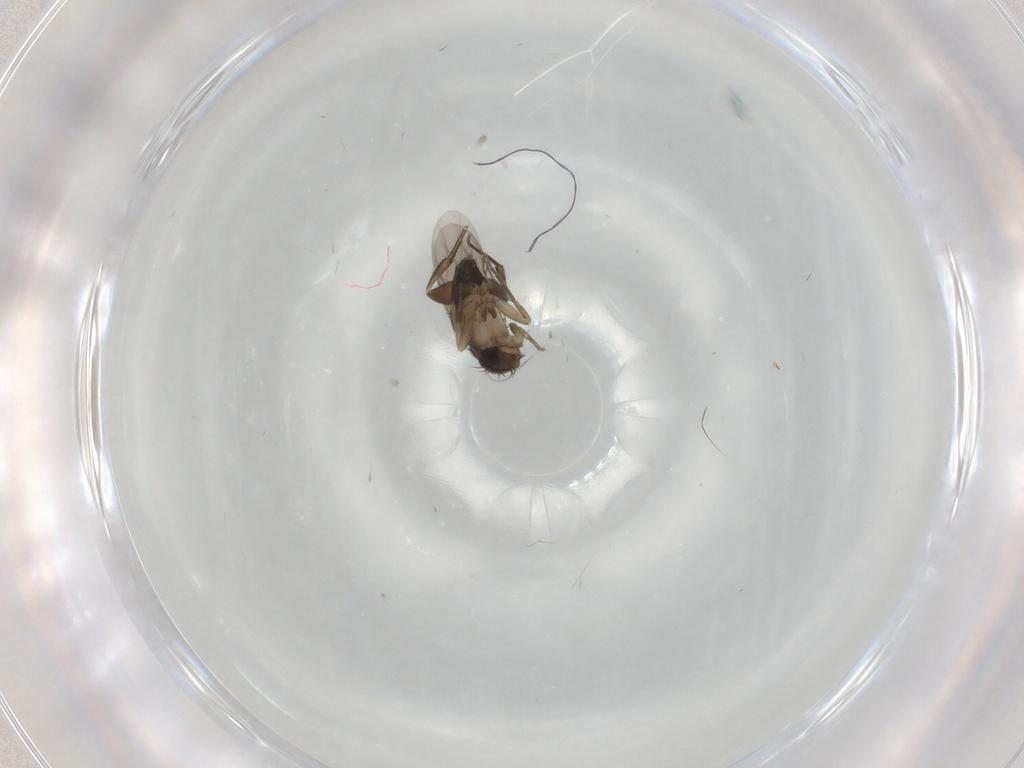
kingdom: Animalia
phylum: Arthropoda
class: Insecta
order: Diptera
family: Phoridae
